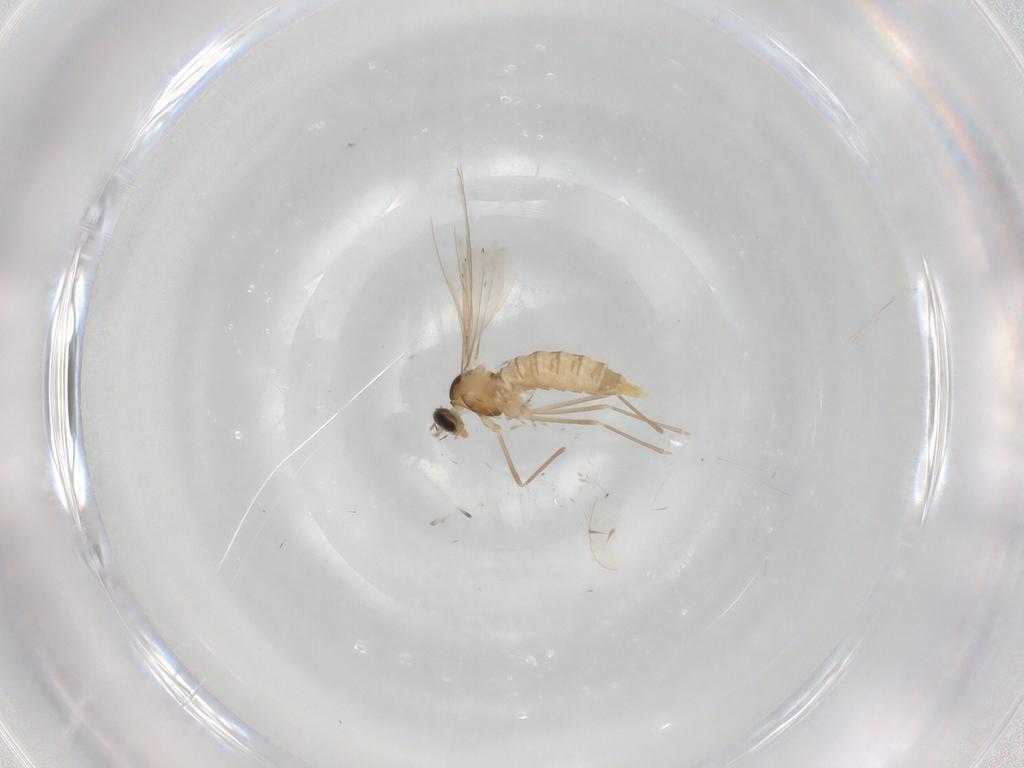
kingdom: Animalia
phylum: Arthropoda
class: Insecta
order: Diptera
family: Cecidomyiidae
